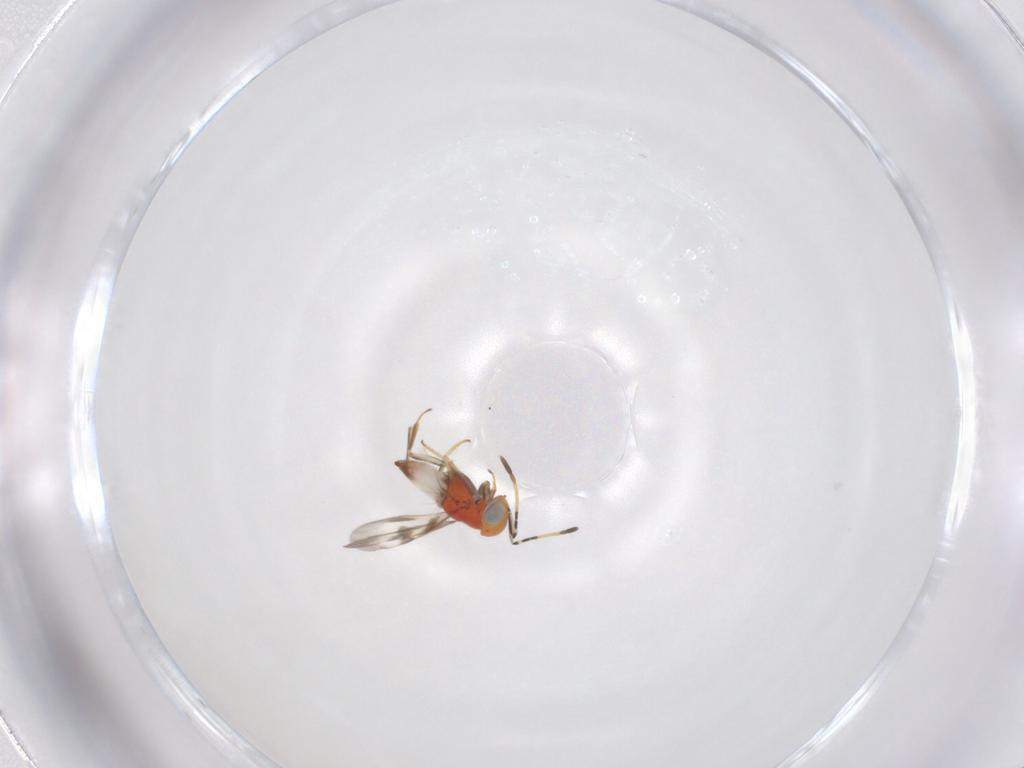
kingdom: Animalia
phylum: Arthropoda
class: Insecta
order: Hymenoptera
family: Encyrtidae
